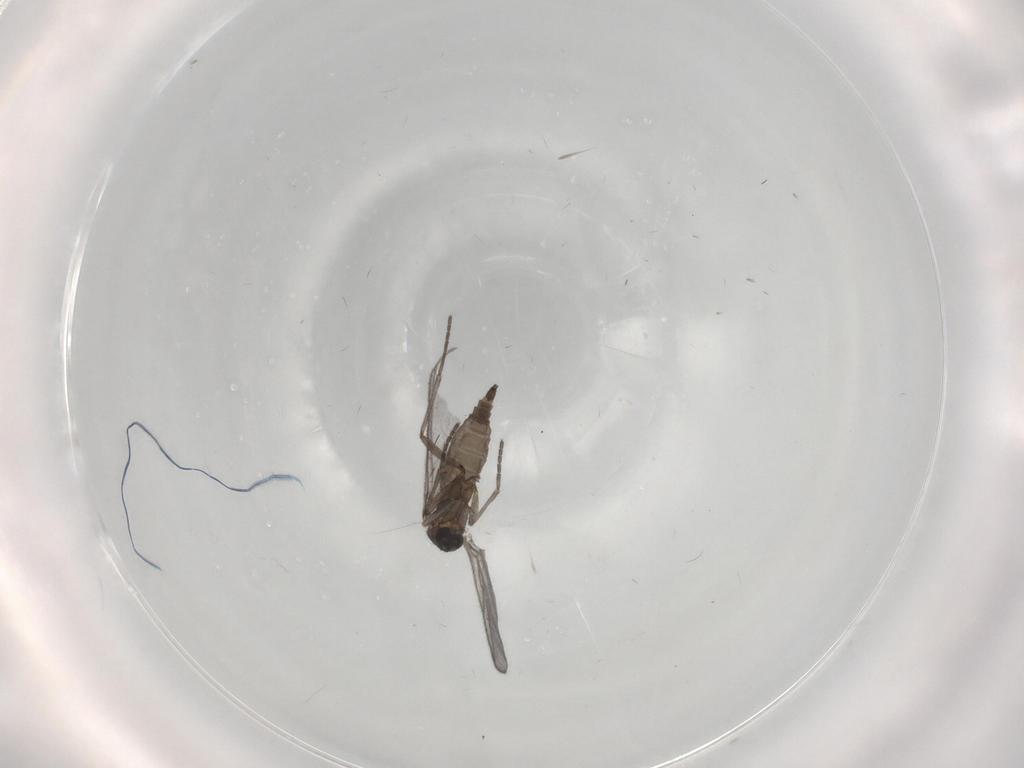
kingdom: Animalia
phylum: Arthropoda
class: Insecta
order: Diptera
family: Sciaridae
